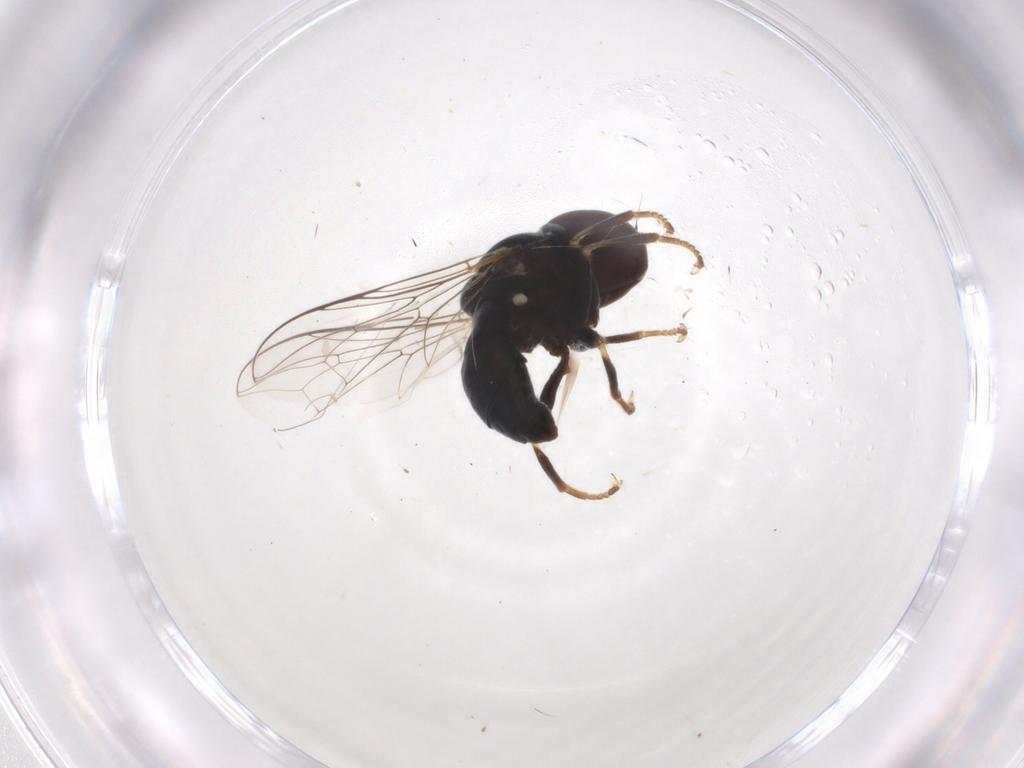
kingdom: Animalia
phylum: Arthropoda
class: Insecta
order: Diptera
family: Pipunculidae
